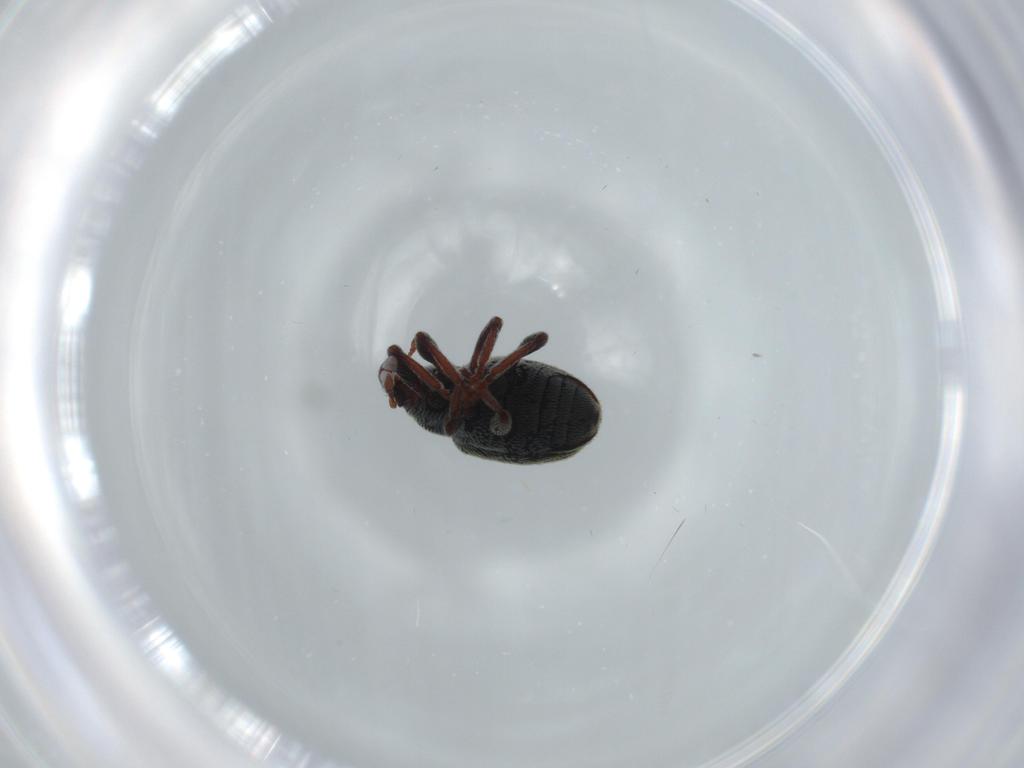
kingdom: Animalia
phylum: Arthropoda
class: Insecta
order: Coleoptera
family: Curculionidae
